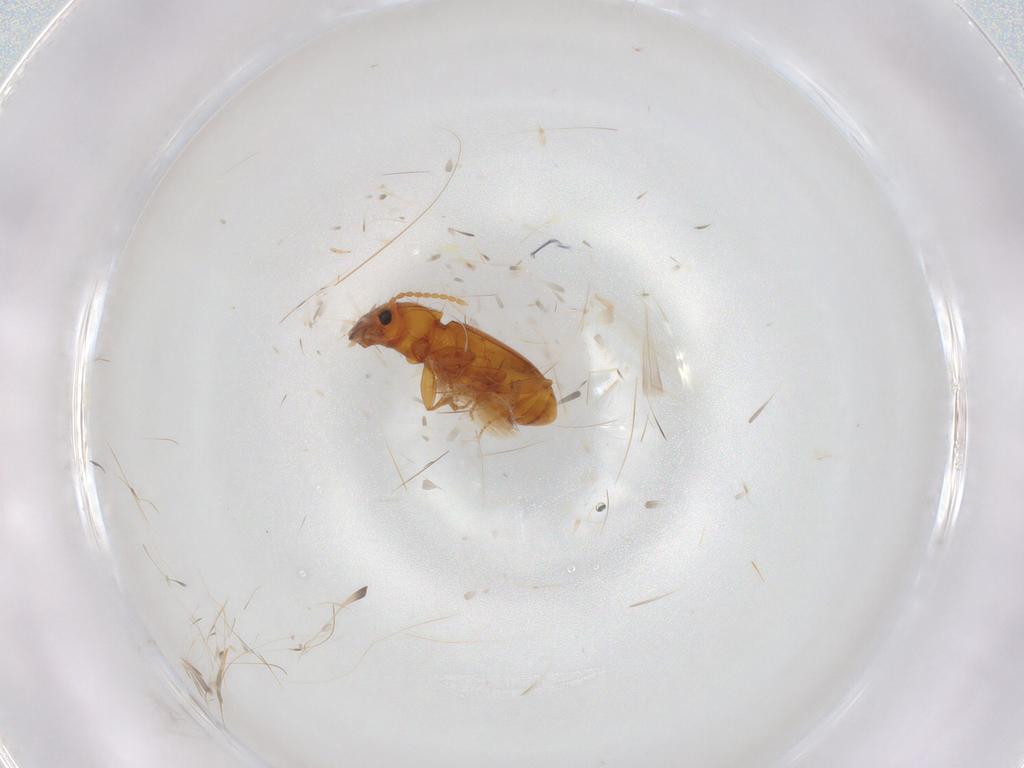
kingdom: Animalia
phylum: Arthropoda
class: Insecta
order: Coleoptera
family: Carabidae
